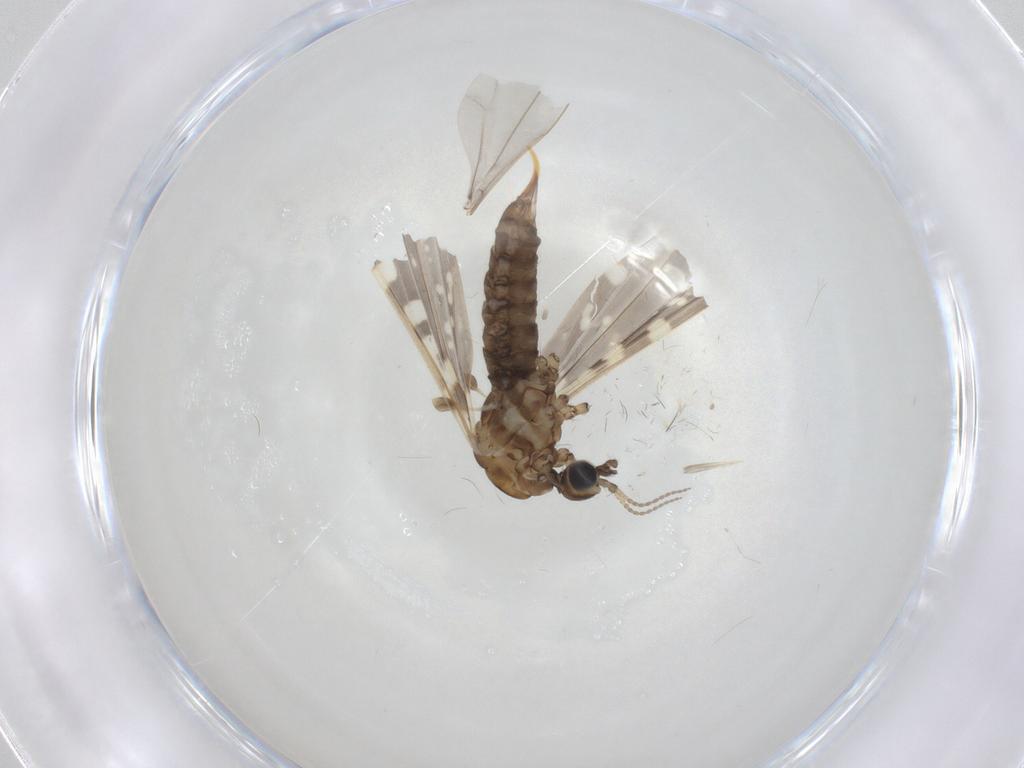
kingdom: Animalia
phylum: Arthropoda
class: Insecta
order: Diptera
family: Limoniidae
